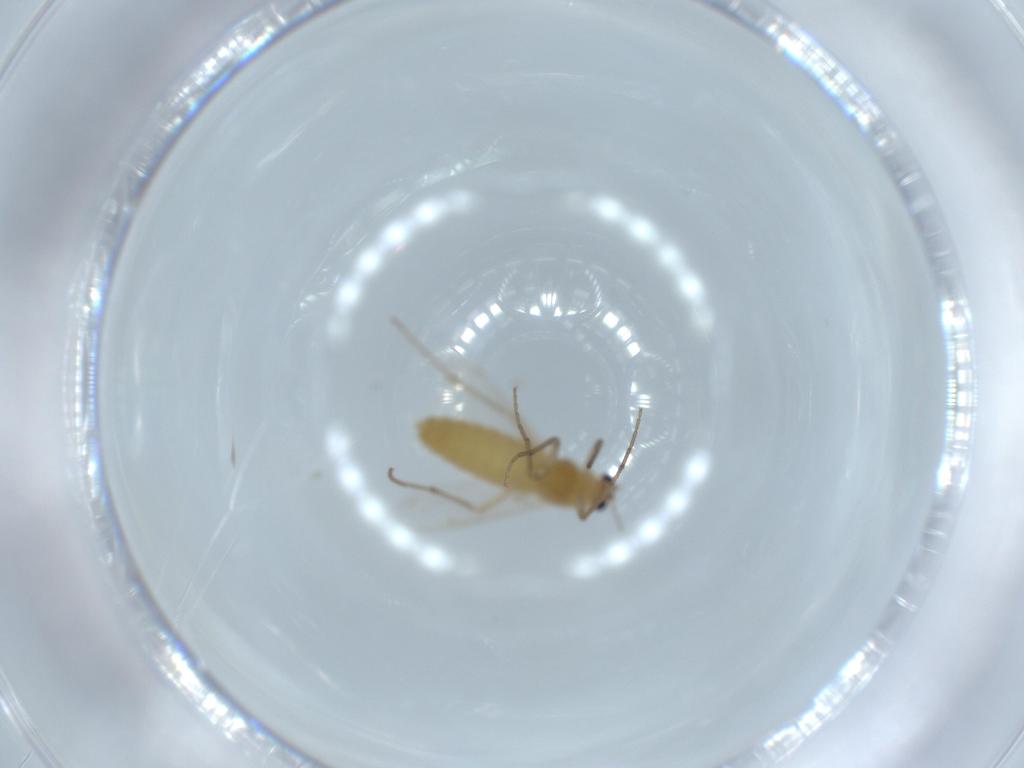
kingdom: Animalia
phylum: Arthropoda
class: Insecta
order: Diptera
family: Chironomidae
